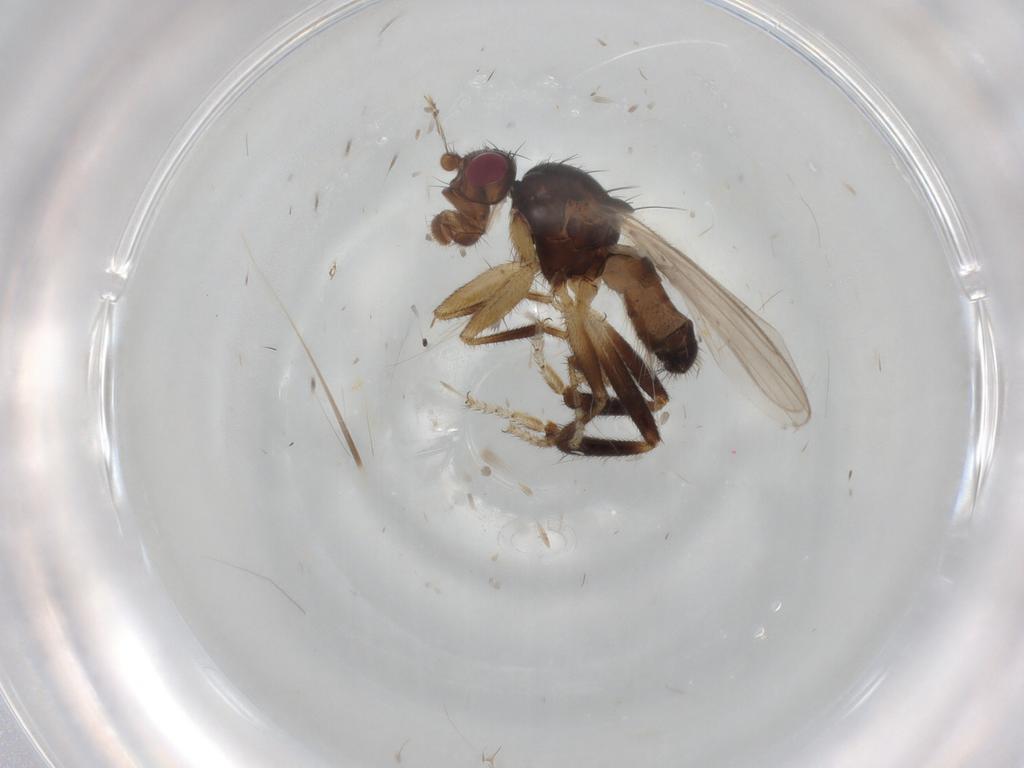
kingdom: Animalia
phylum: Arthropoda
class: Insecta
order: Diptera
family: Sphaeroceridae
